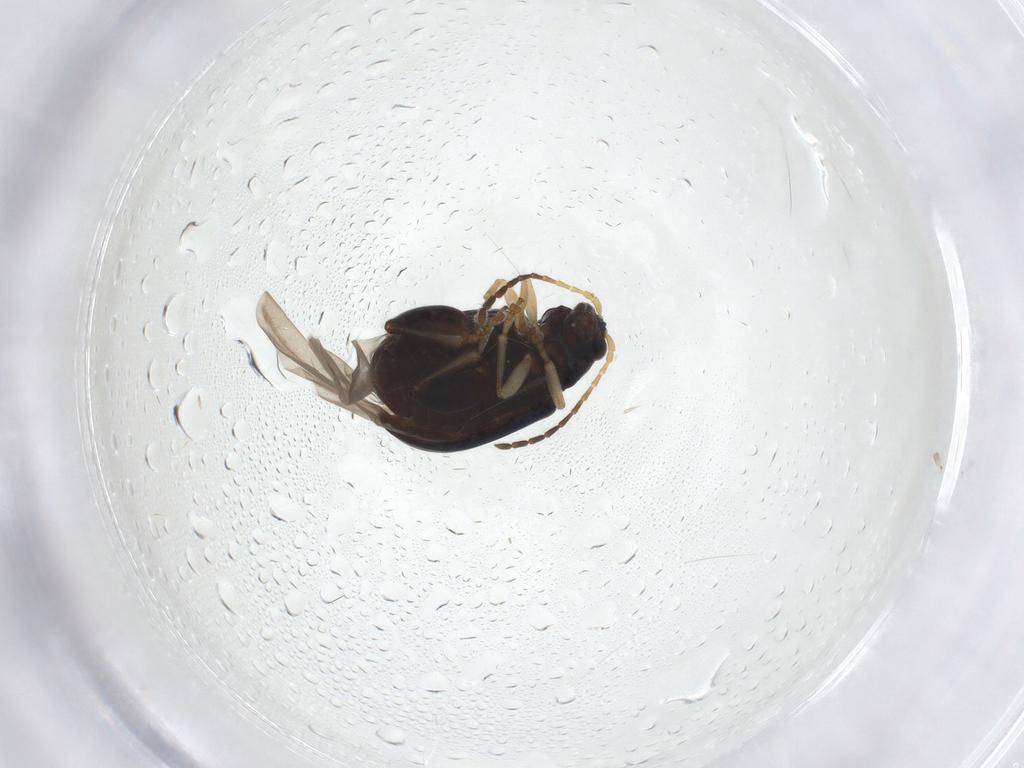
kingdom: Animalia
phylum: Arthropoda
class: Insecta
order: Coleoptera
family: Chrysomelidae
